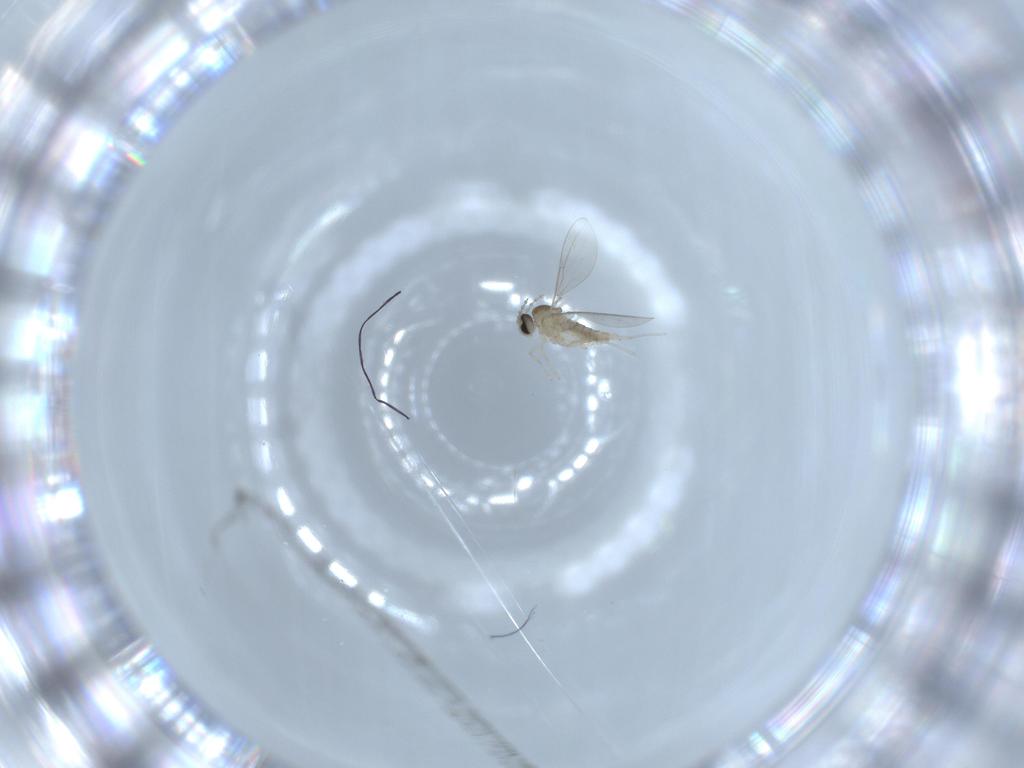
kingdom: Animalia
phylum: Arthropoda
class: Insecta
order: Diptera
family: Cecidomyiidae
